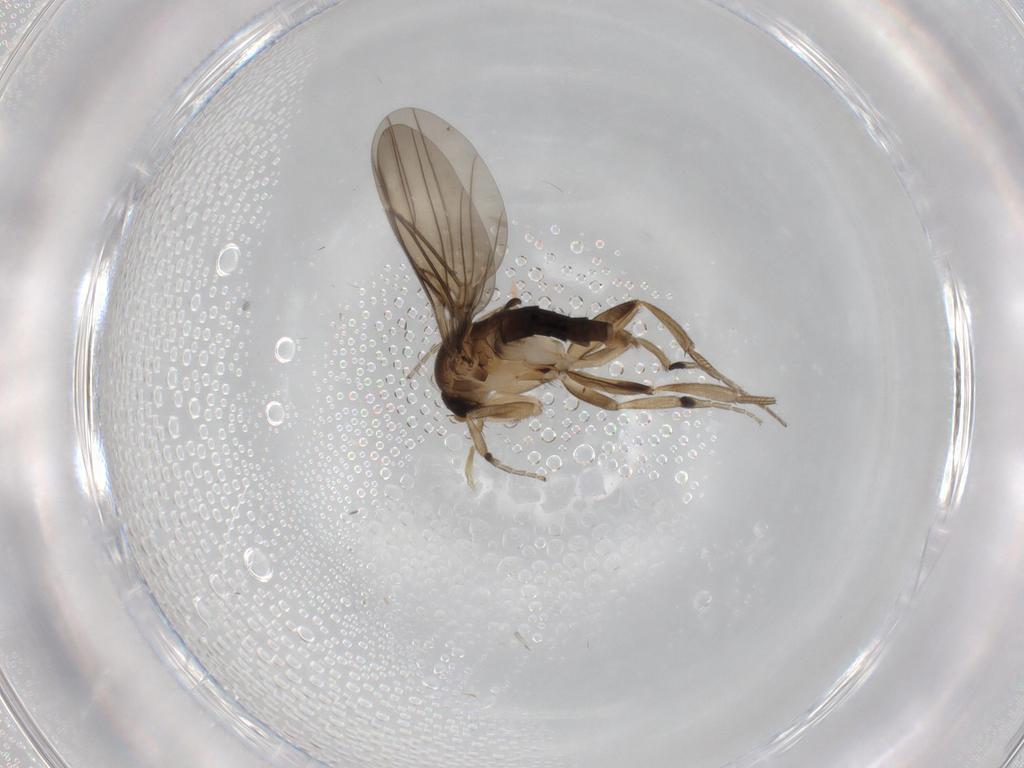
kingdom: Animalia
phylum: Arthropoda
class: Insecta
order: Diptera
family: Phoridae
